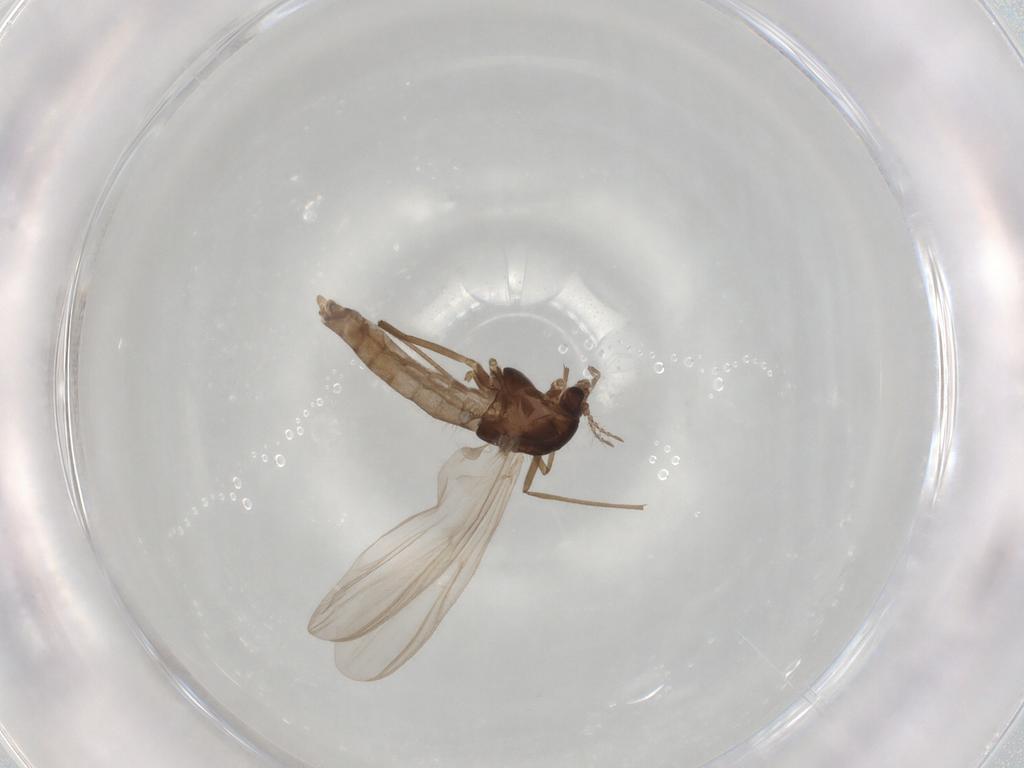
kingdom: Animalia
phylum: Arthropoda
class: Insecta
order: Diptera
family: Chironomidae
